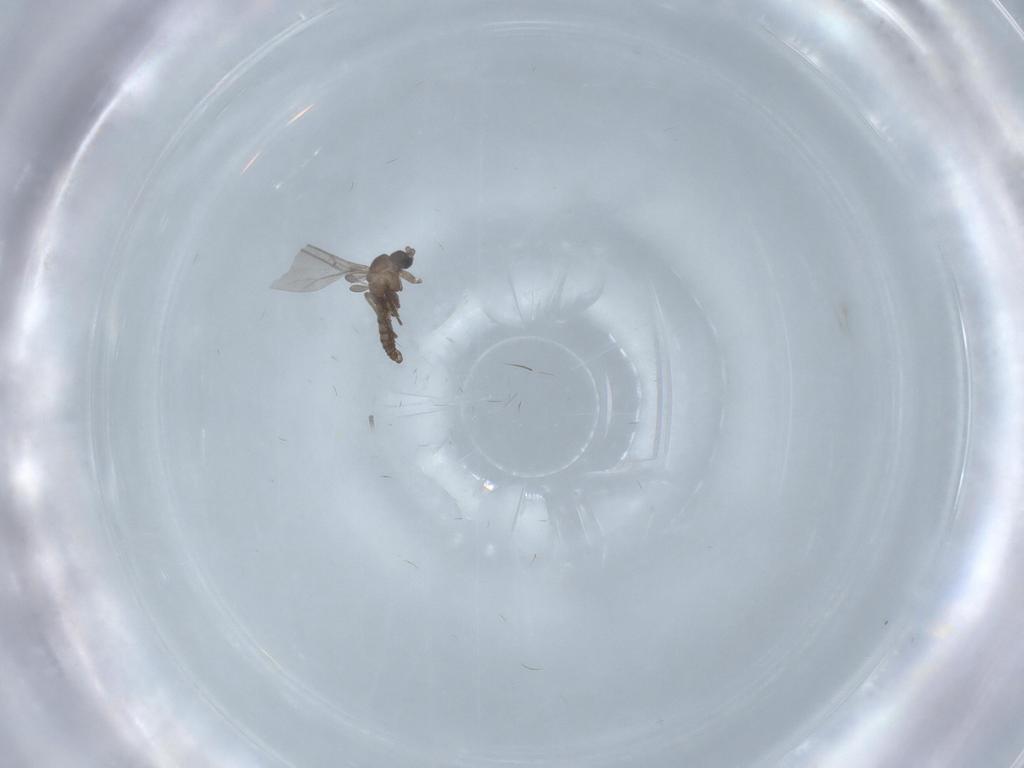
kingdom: Animalia
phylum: Arthropoda
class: Insecta
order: Diptera
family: Sciaridae
